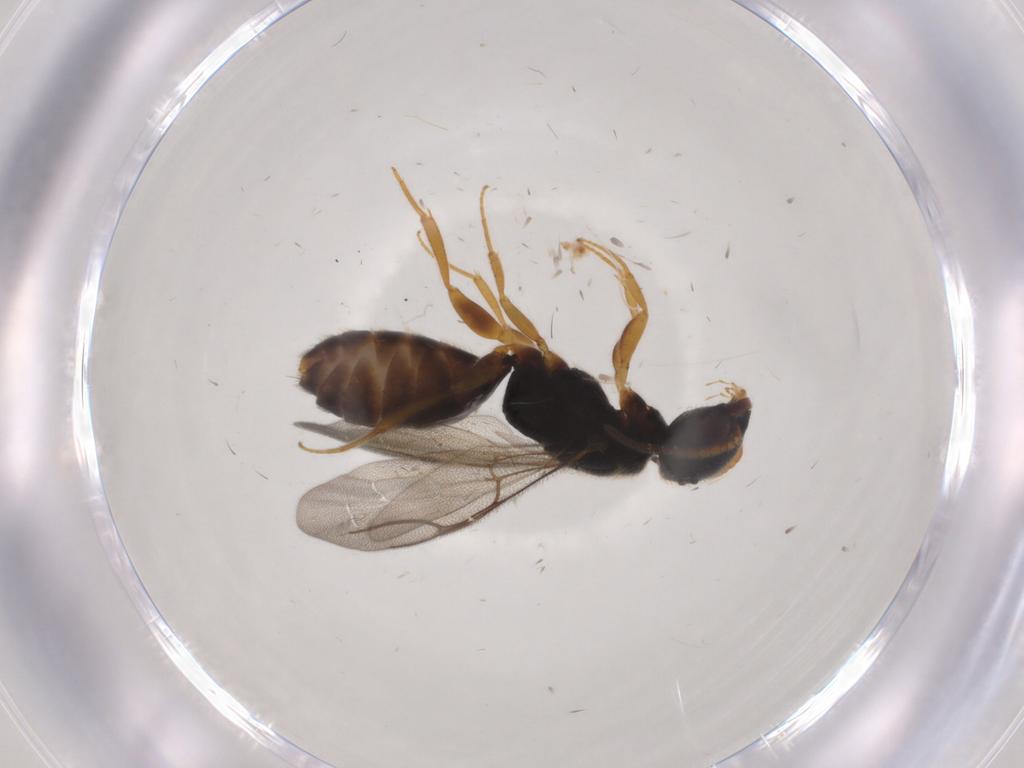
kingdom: Animalia
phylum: Arthropoda
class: Insecta
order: Hymenoptera
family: Bethylidae
